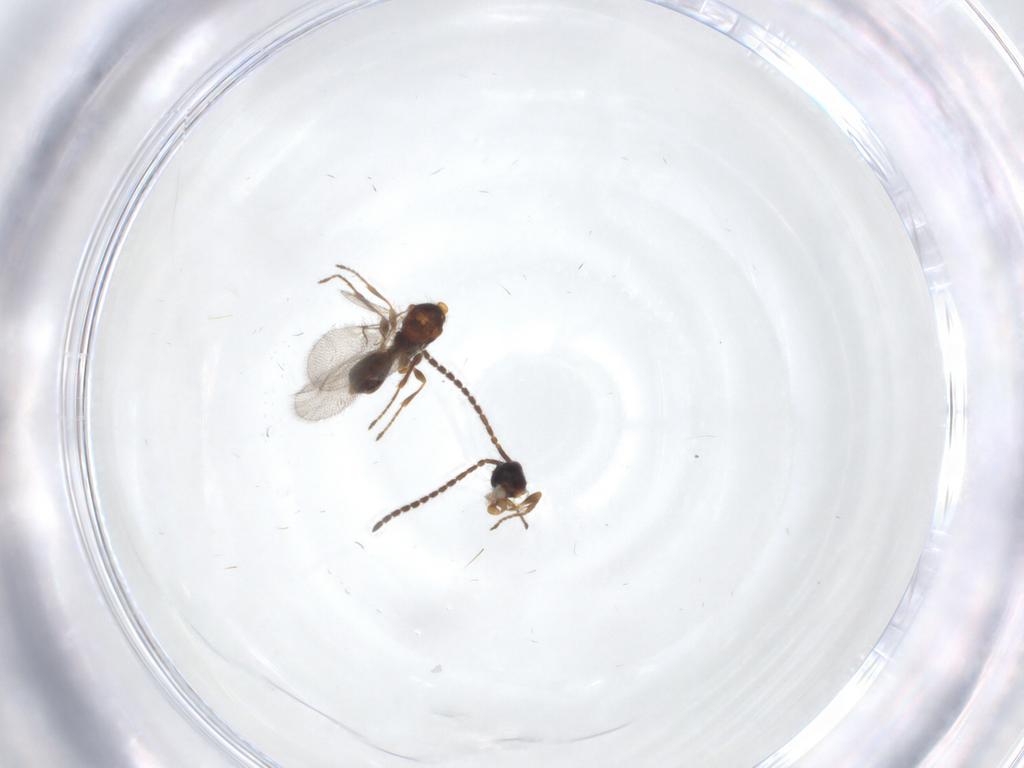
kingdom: Animalia
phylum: Arthropoda
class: Insecta
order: Hymenoptera
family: Diapriidae
